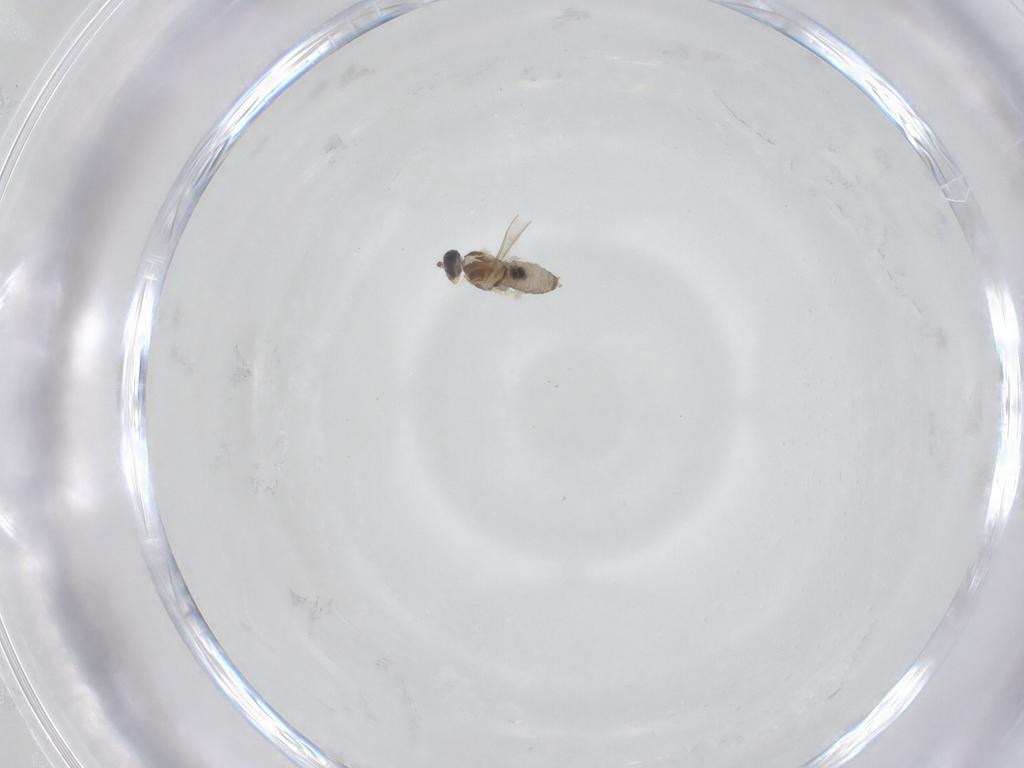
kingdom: Animalia
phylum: Arthropoda
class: Insecta
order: Diptera
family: Cecidomyiidae
